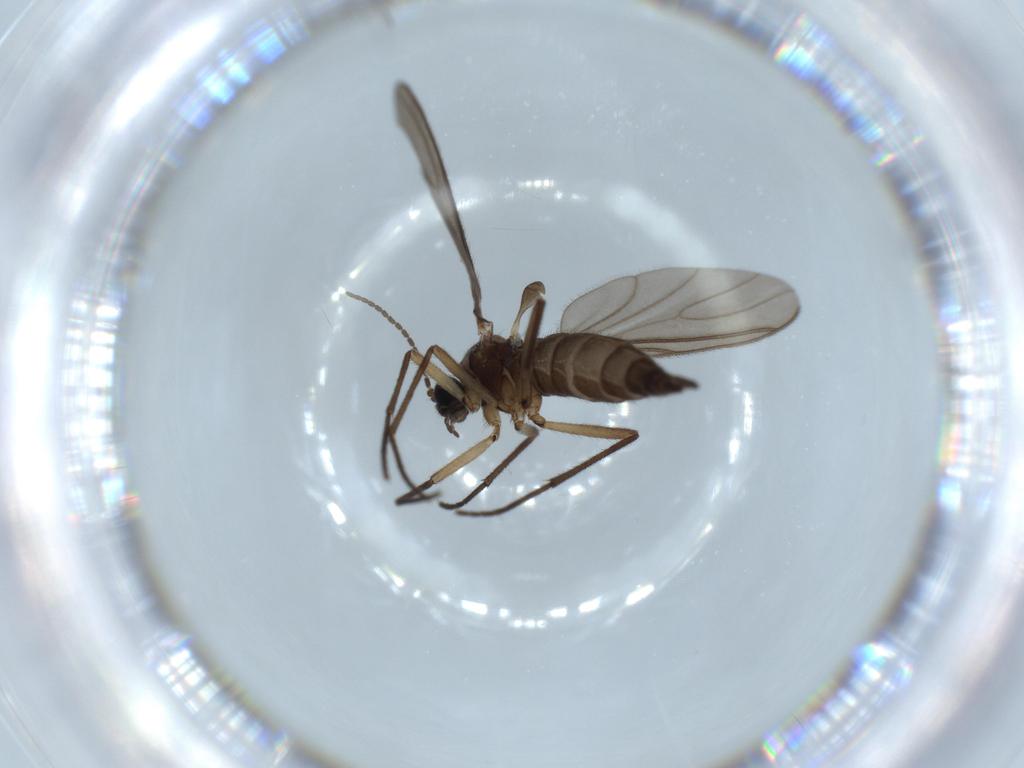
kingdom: Animalia
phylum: Arthropoda
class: Insecta
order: Diptera
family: Sciaridae
